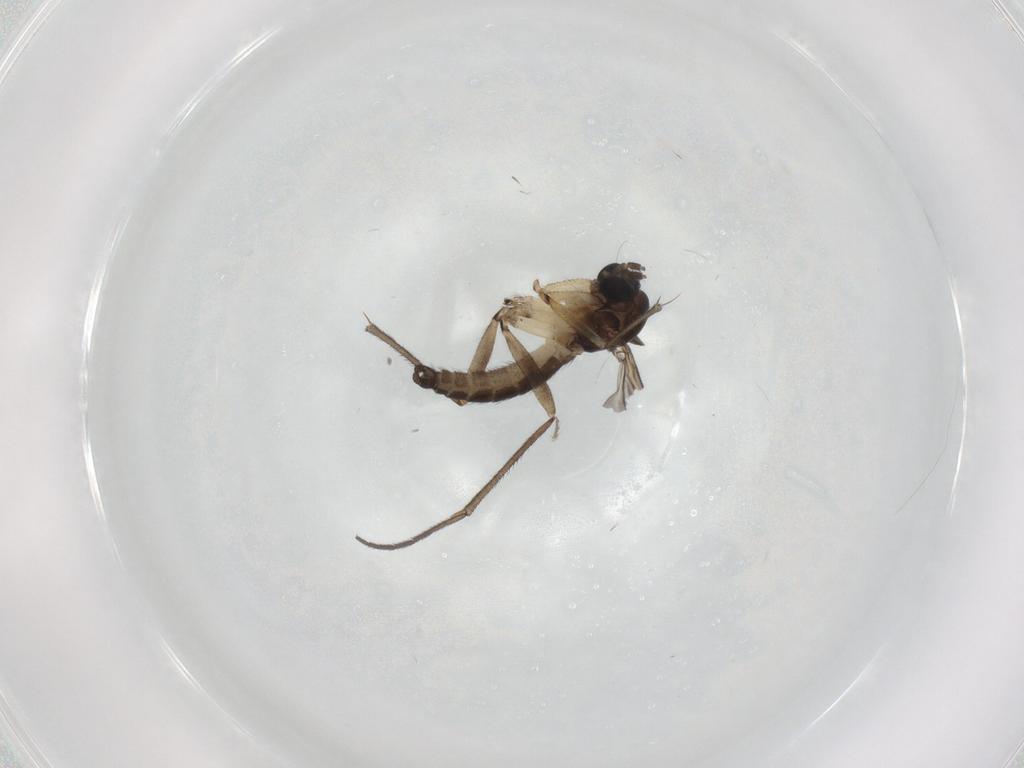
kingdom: Animalia
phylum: Arthropoda
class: Insecta
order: Diptera
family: Sciaridae
